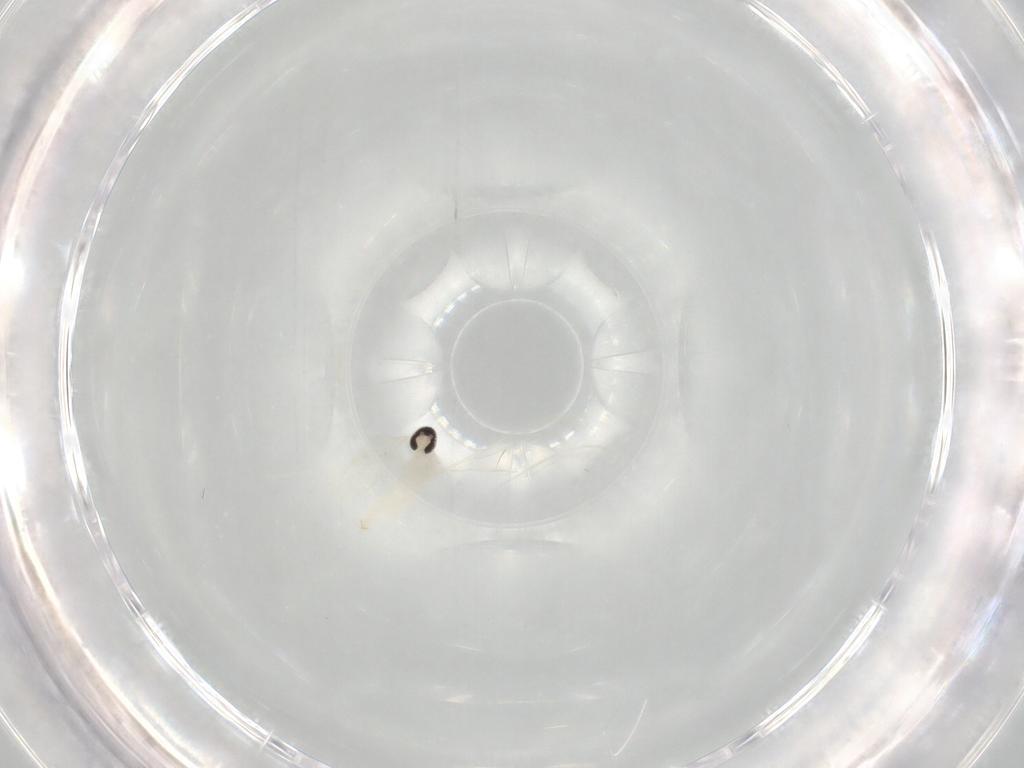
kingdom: Animalia
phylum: Arthropoda
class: Insecta
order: Diptera
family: Cecidomyiidae
